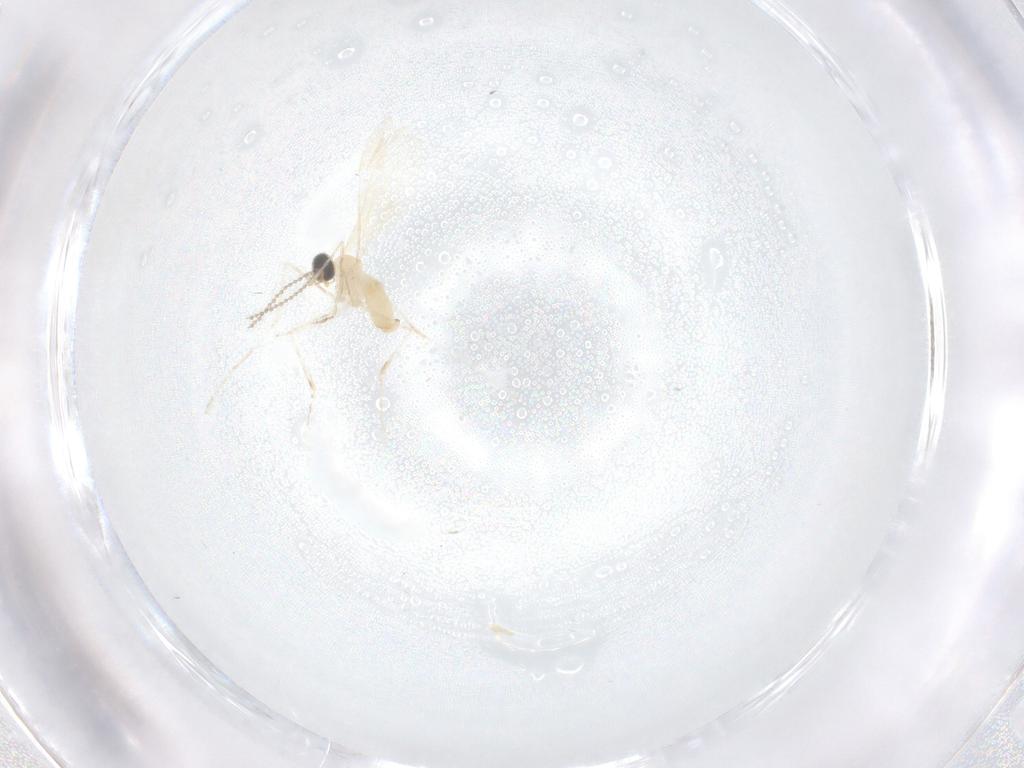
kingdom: Animalia
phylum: Arthropoda
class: Insecta
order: Diptera
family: Cecidomyiidae
